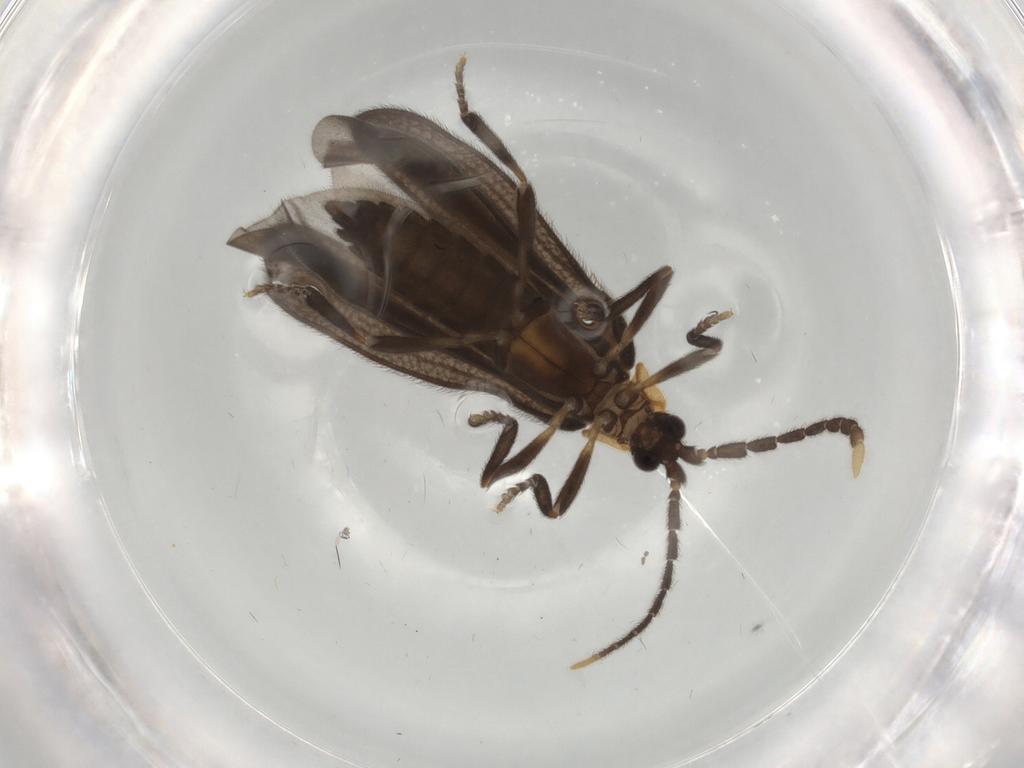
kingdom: Animalia
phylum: Arthropoda
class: Insecta
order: Coleoptera
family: Lycidae
